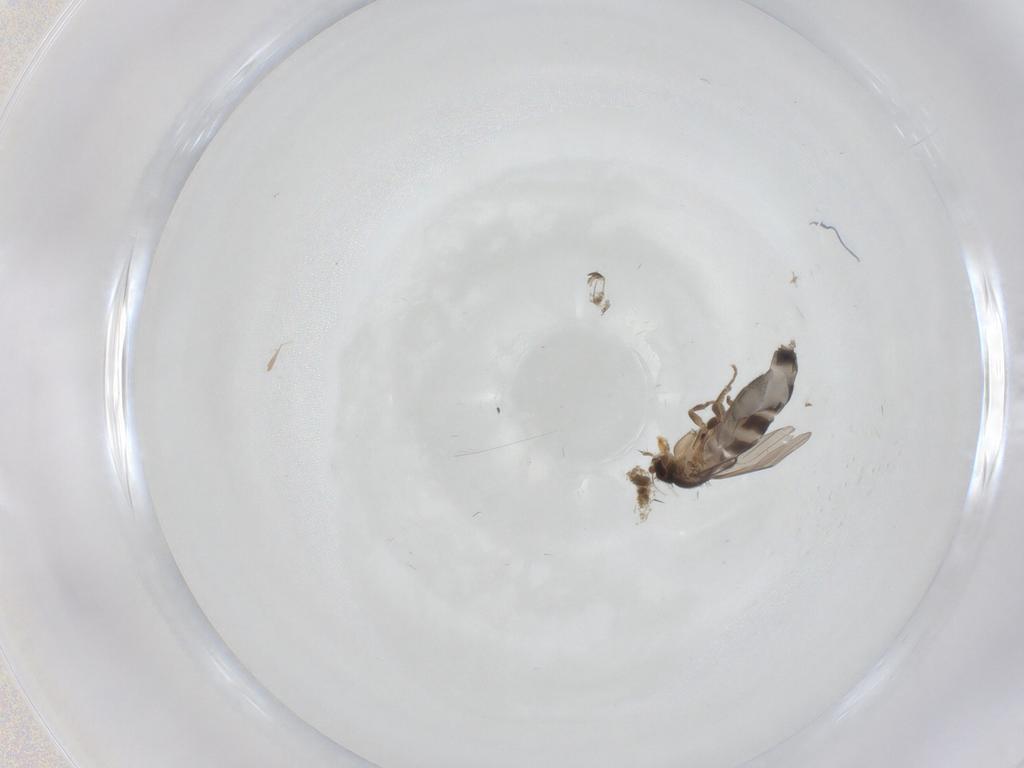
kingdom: Animalia
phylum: Arthropoda
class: Insecta
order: Diptera
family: Phoridae
